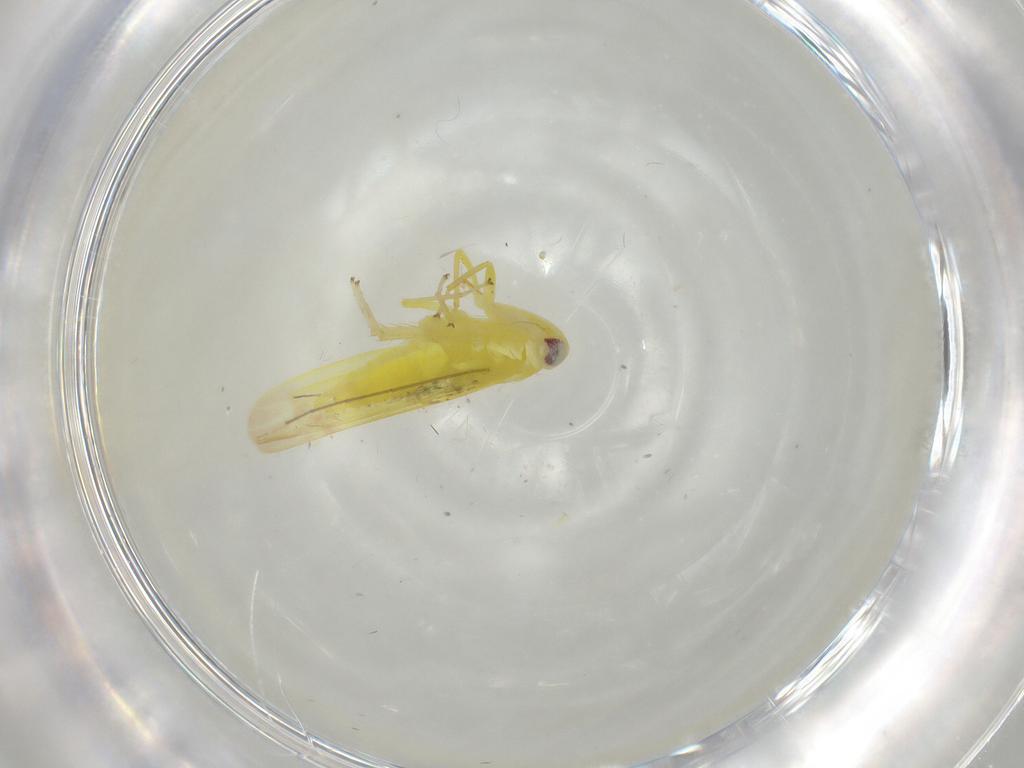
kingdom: Animalia
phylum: Arthropoda
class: Insecta
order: Hemiptera
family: Cicadellidae
